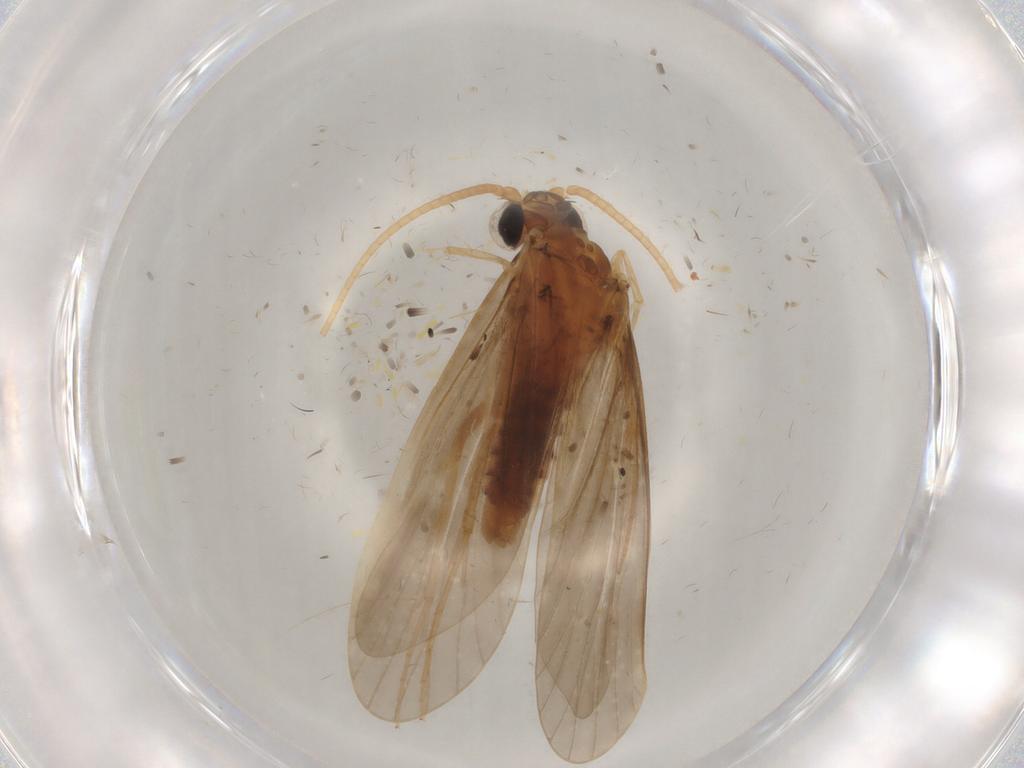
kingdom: Animalia
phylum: Arthropoda
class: Insecta
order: Trichoptera
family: Ecnomidae
